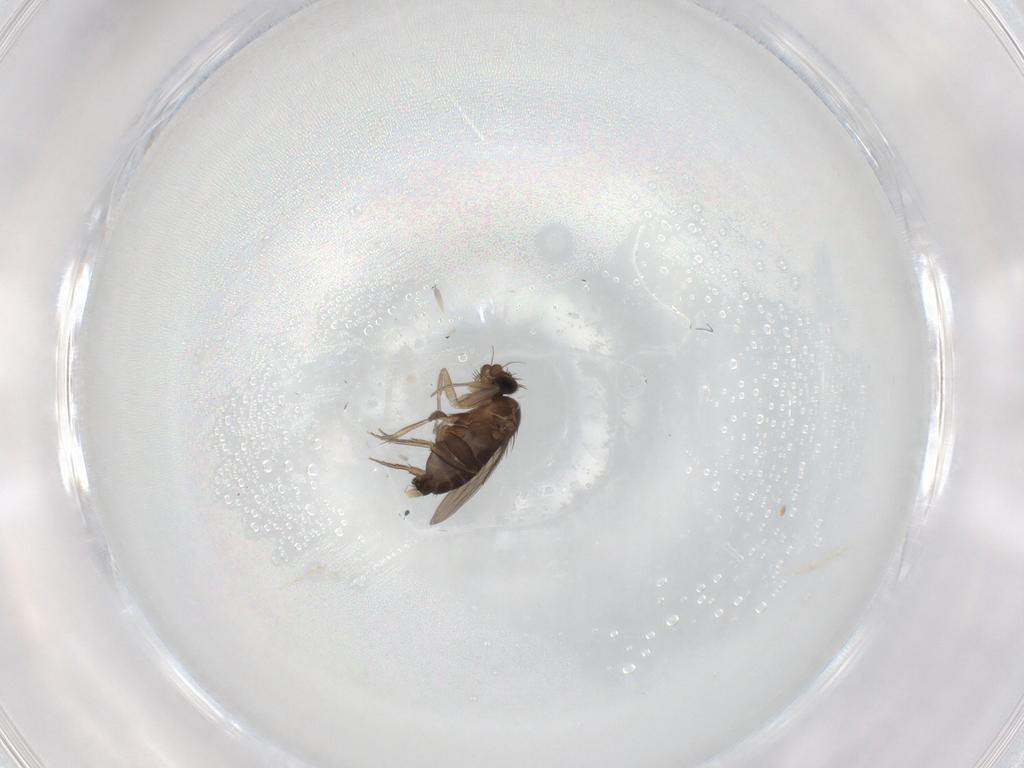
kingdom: Animalia
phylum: Arthropoda
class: Insecta
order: Diptera
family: Phoridae
